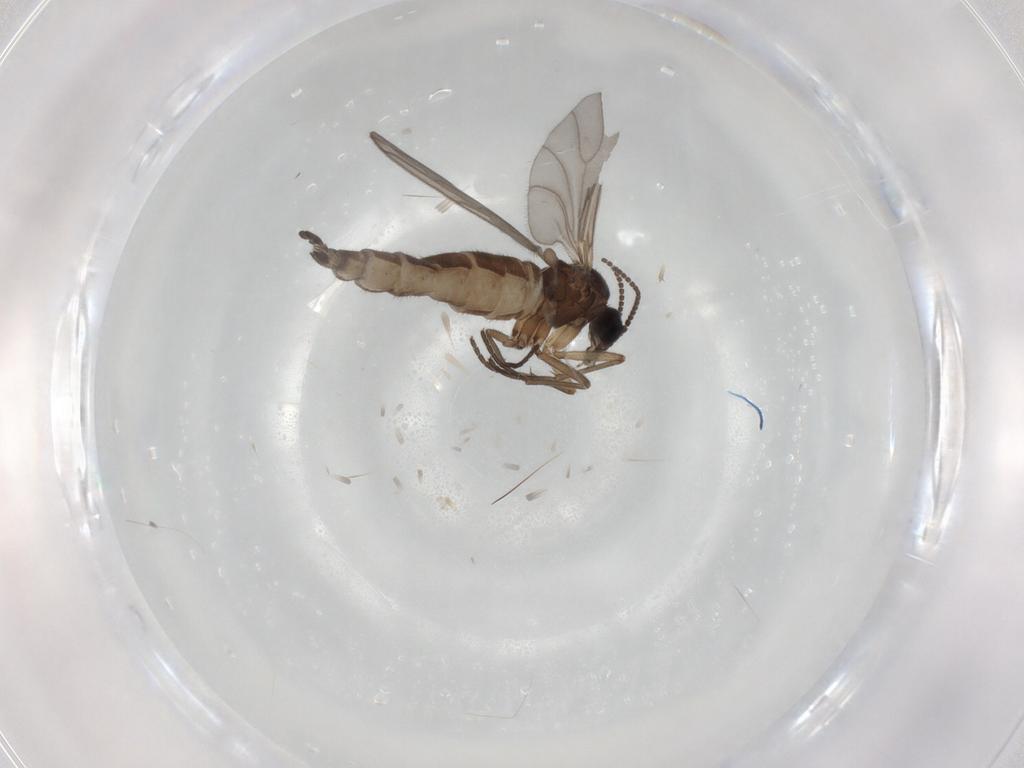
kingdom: Animalia
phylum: Arthropoda
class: Insecta
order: Diptera
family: Sciaridae
